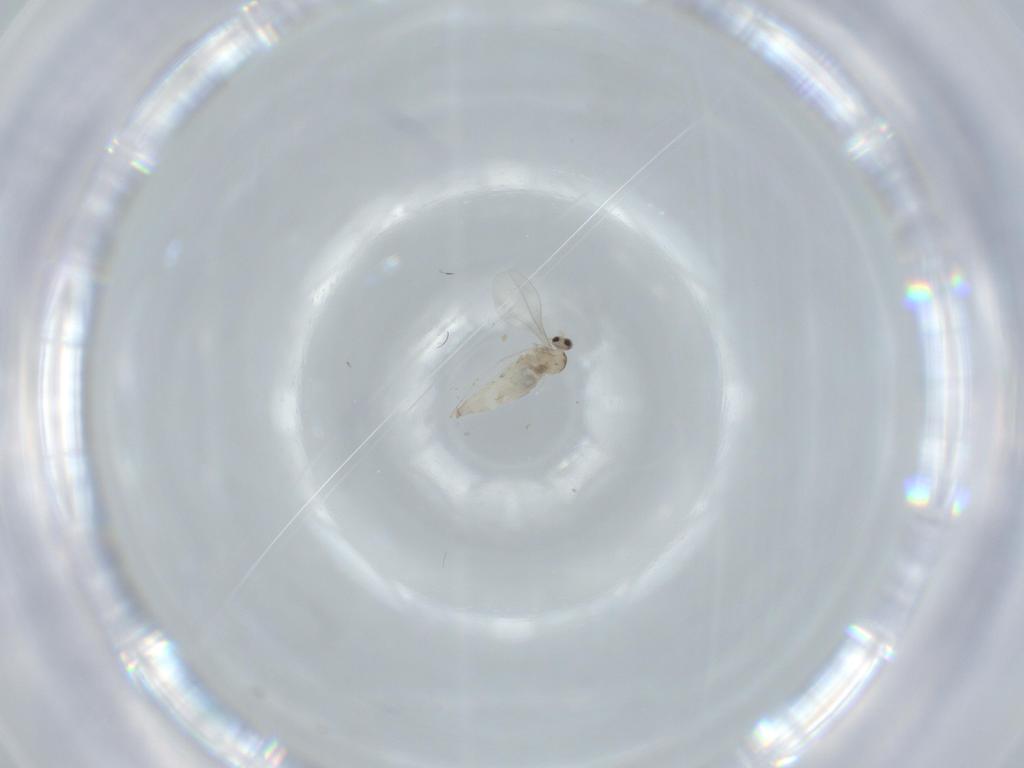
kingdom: Animalia
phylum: Arthropoda
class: Insecta
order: Diptera
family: Cecidomyiidae
